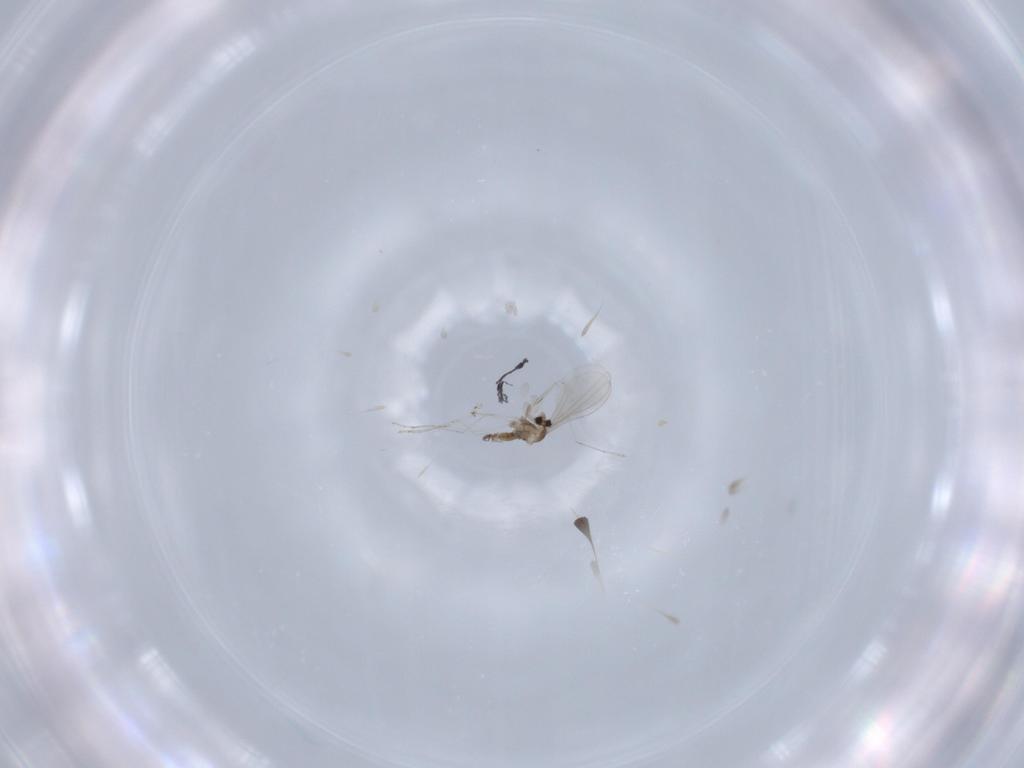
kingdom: Animalia
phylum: Arthropoda
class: Insecta
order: Diptera
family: Cecidomyiidae
